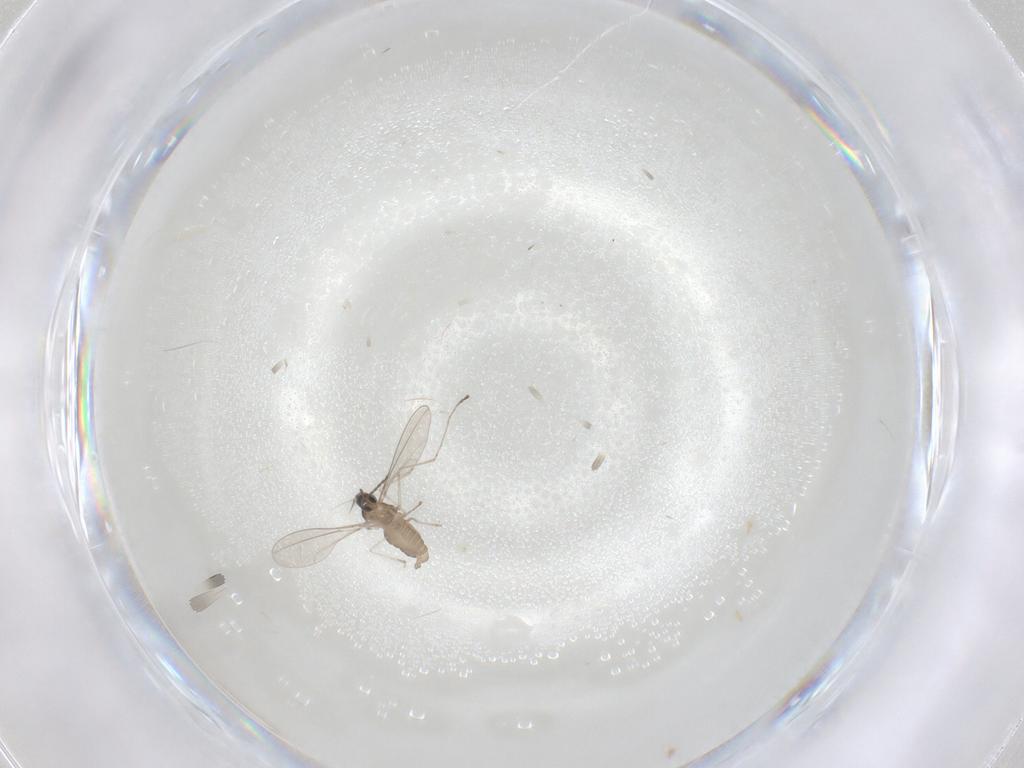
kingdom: Animalia
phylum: Arthropoda
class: Insecta
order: Diptera
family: Cecidomyiidae
